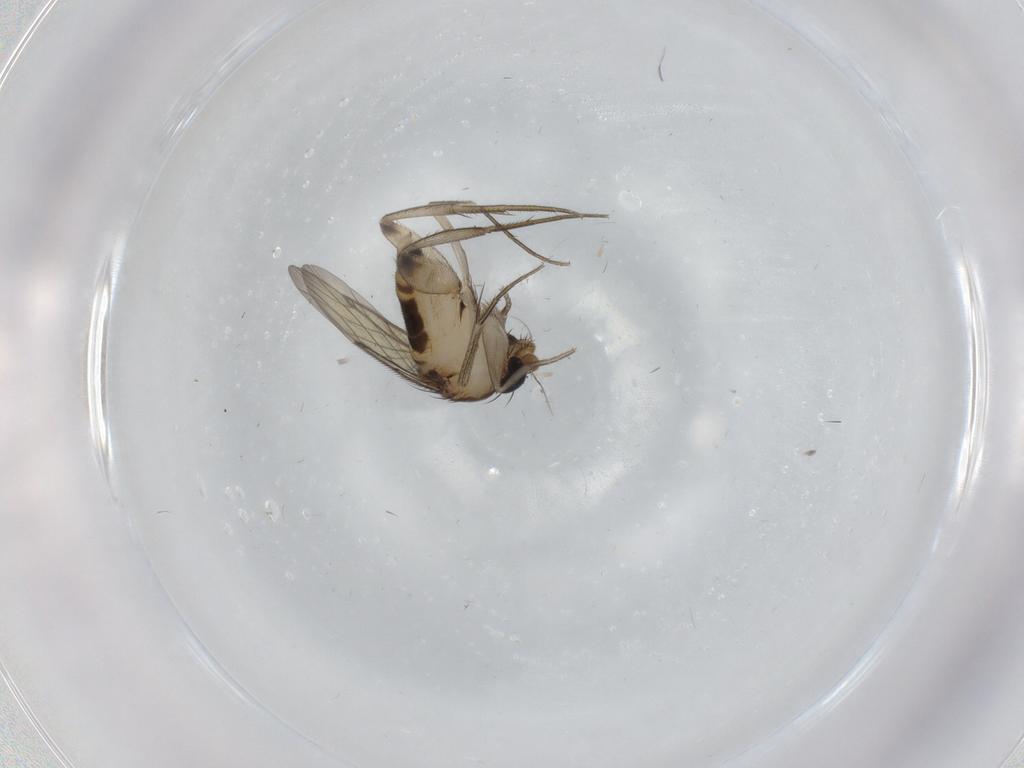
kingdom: Animalia
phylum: Arthropoda
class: Insecta
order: Diptera
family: Phoridae
